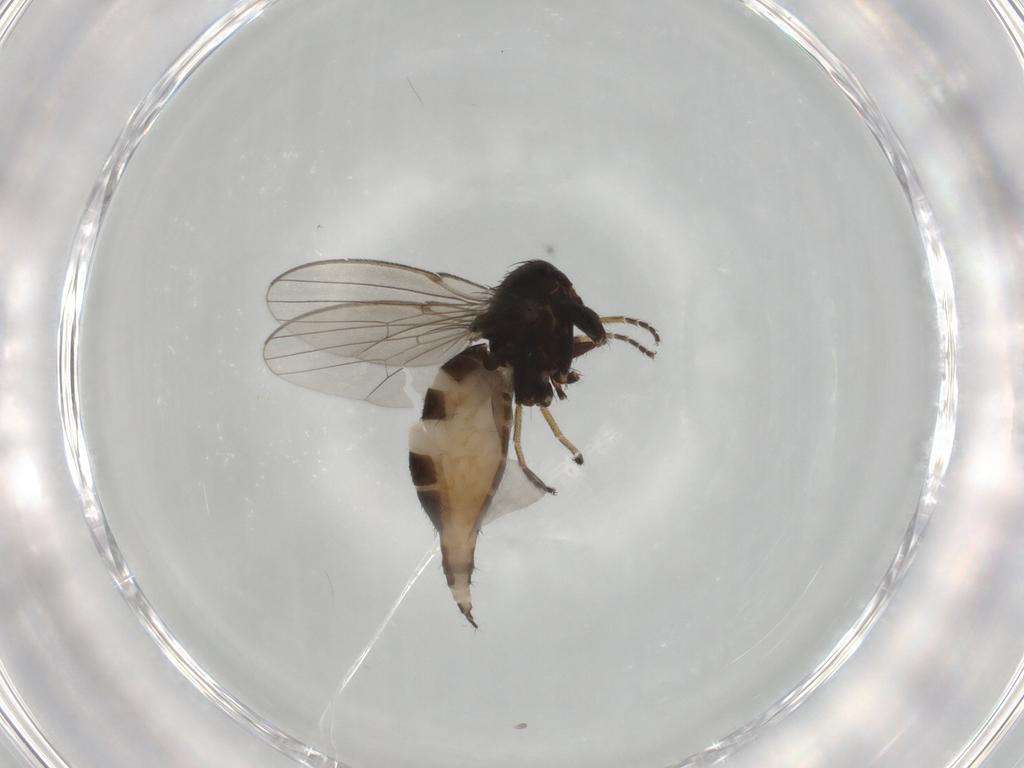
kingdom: Animalia
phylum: Arthropoda
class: Insecta
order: Diptera
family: Milichiidae
